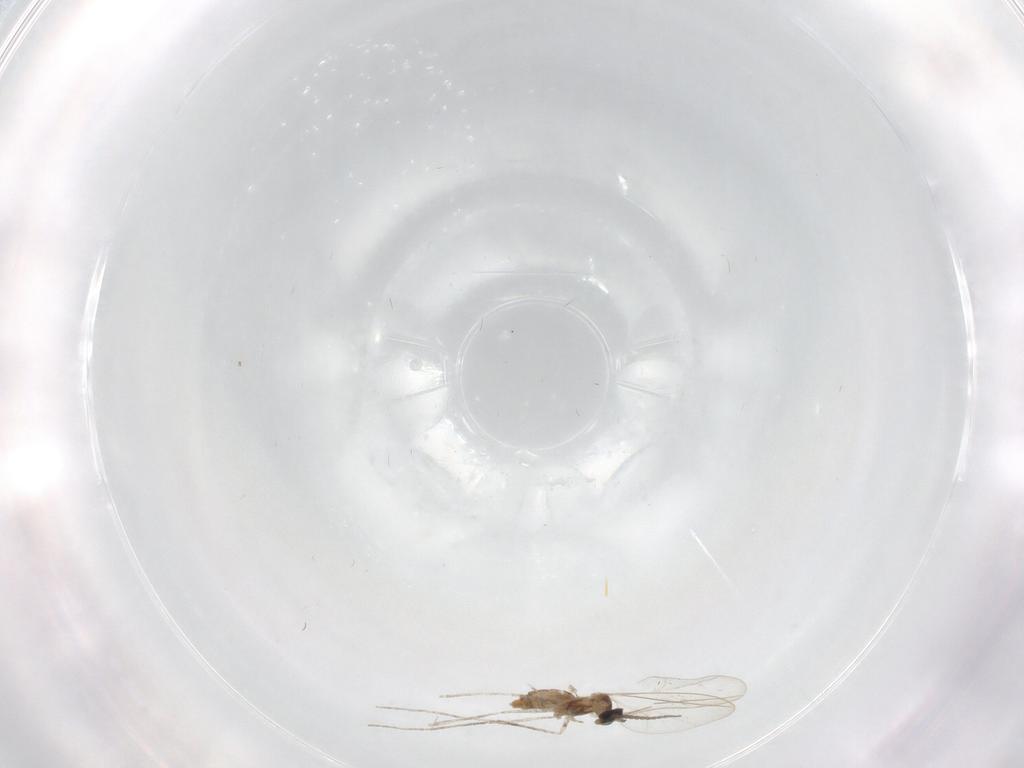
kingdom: Animalia
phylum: Arthropoda
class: Insecta
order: Diptera
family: Cecidomyiidae
